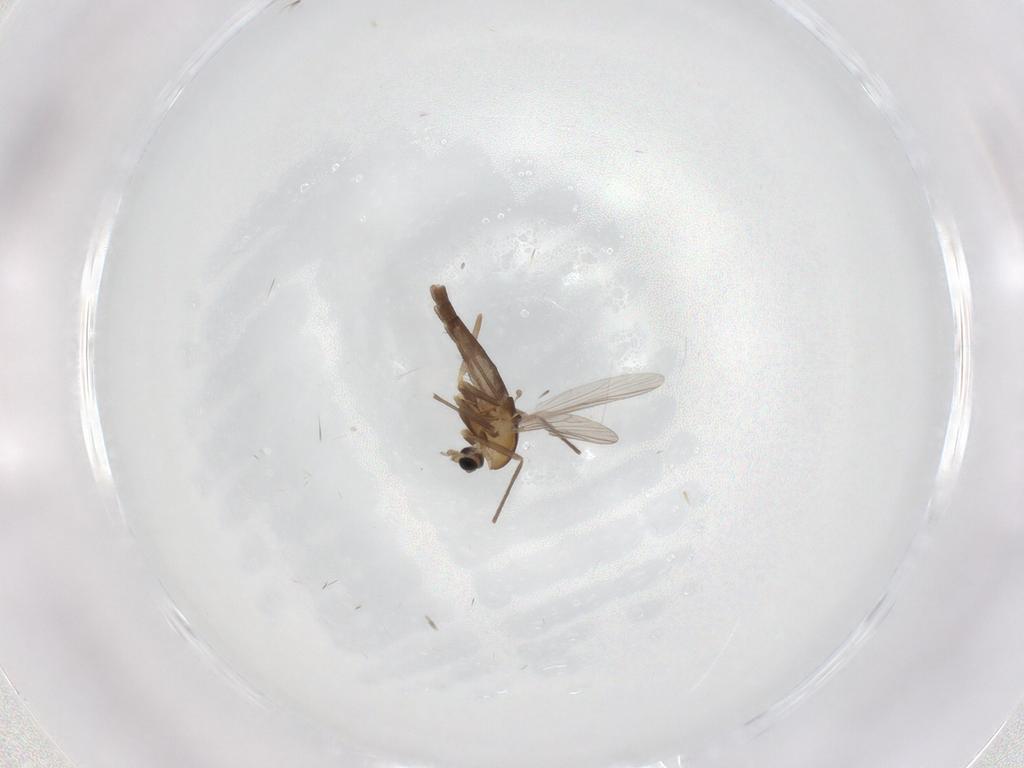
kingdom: Animalia
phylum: Arthropoda
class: Insecta
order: Diptera
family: Chironomidae
